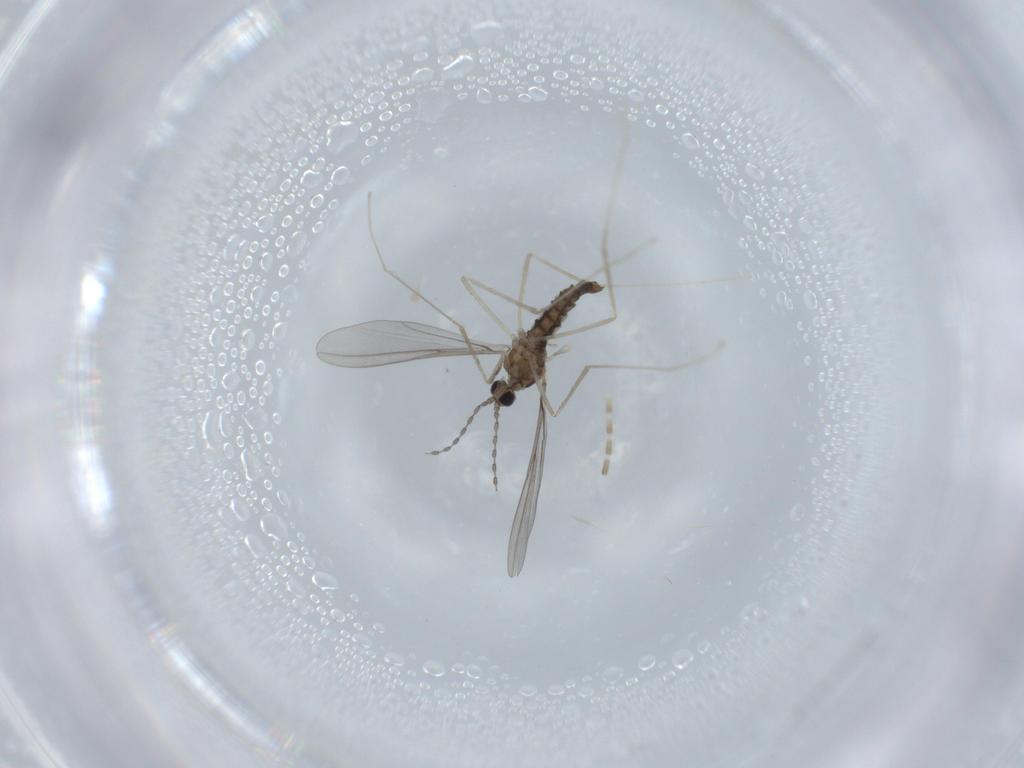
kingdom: Animalia
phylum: Arthropoda
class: Insecta
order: Diptera
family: Cecidomyiidae
